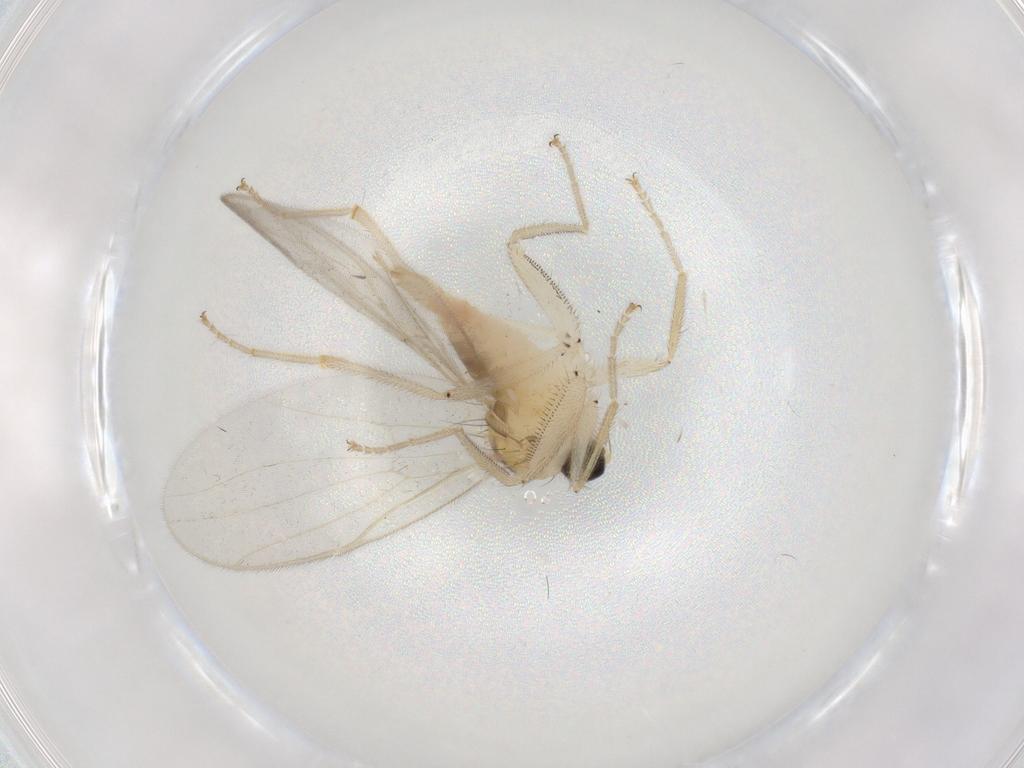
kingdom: Animalia
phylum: Arthropoda
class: Insecta
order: Diptera
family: Hybotidae
